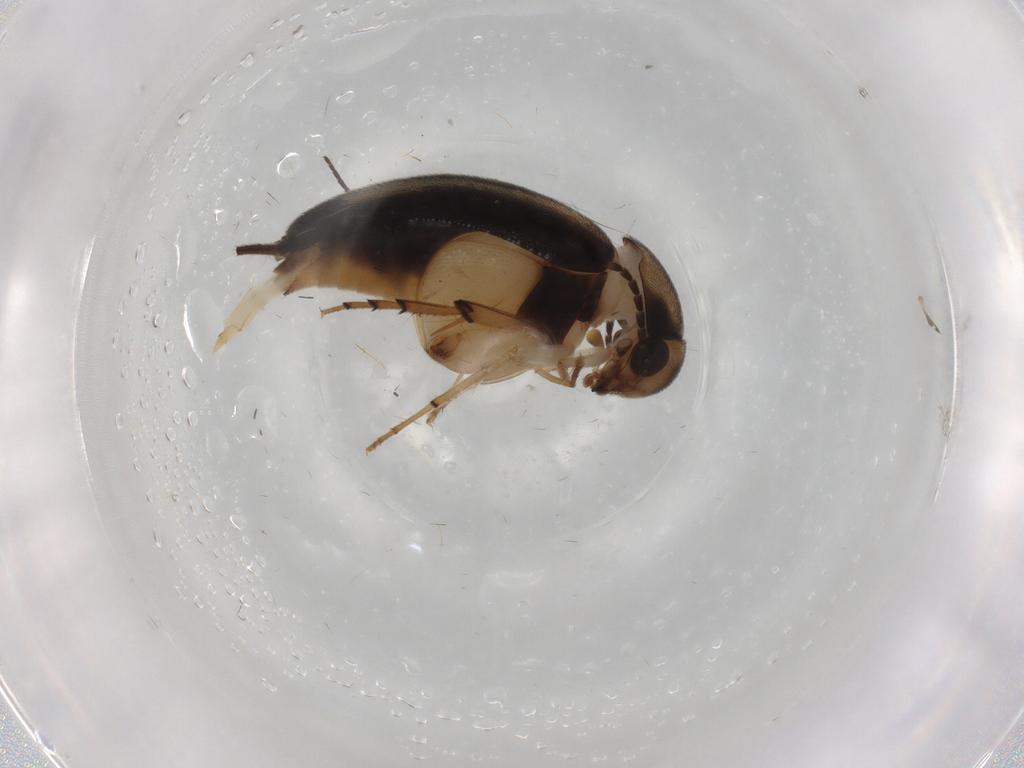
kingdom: Animalia
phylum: Arthropoda
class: Insecta
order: Coleoptera
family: Mordellidae
